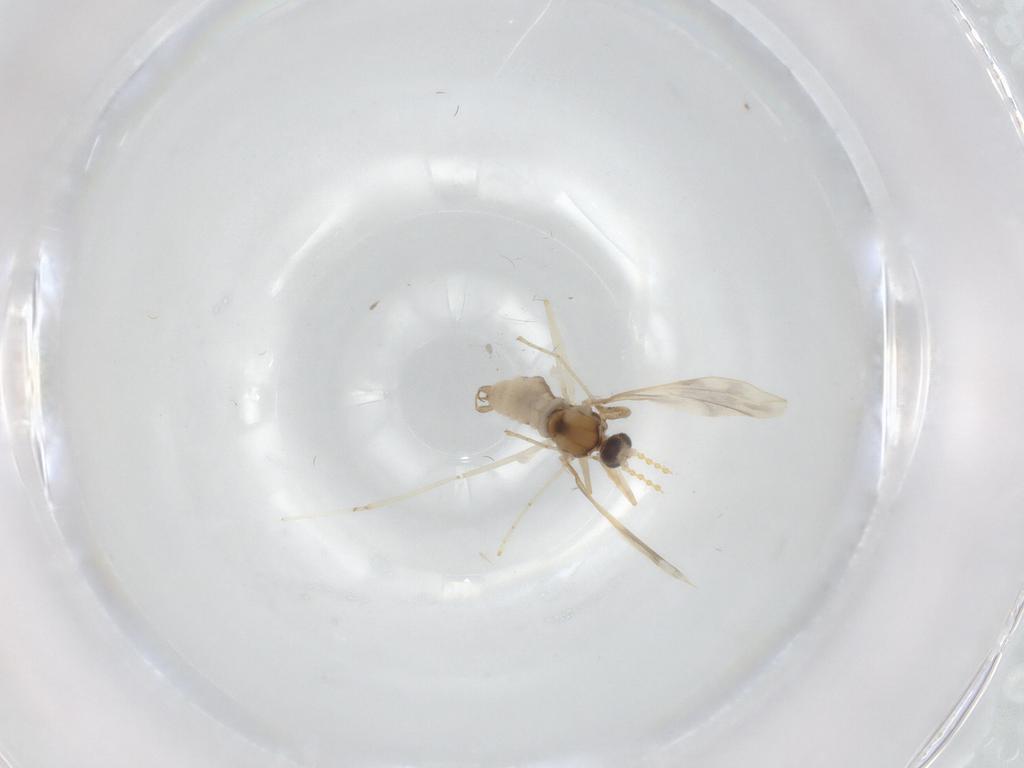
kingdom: Animalia
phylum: Arthropoda
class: Insecta
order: Diptera
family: Cecidomyiidae
